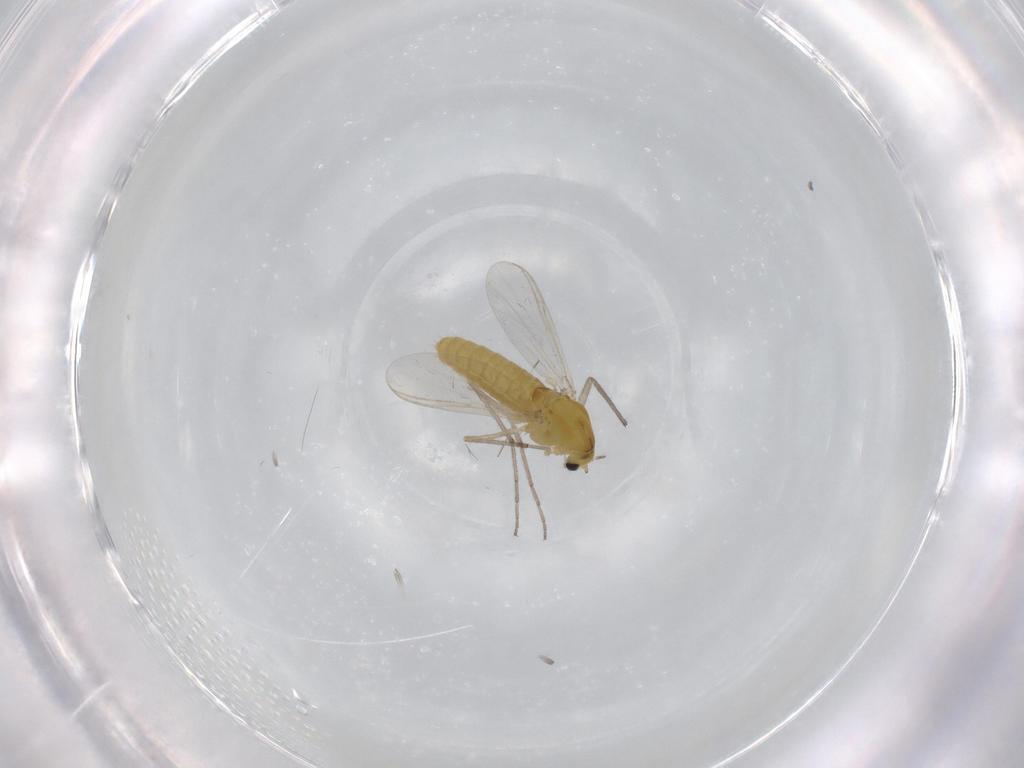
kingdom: Animalia
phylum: Arthropoda
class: Insecta
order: Diptera
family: Chironomidae
